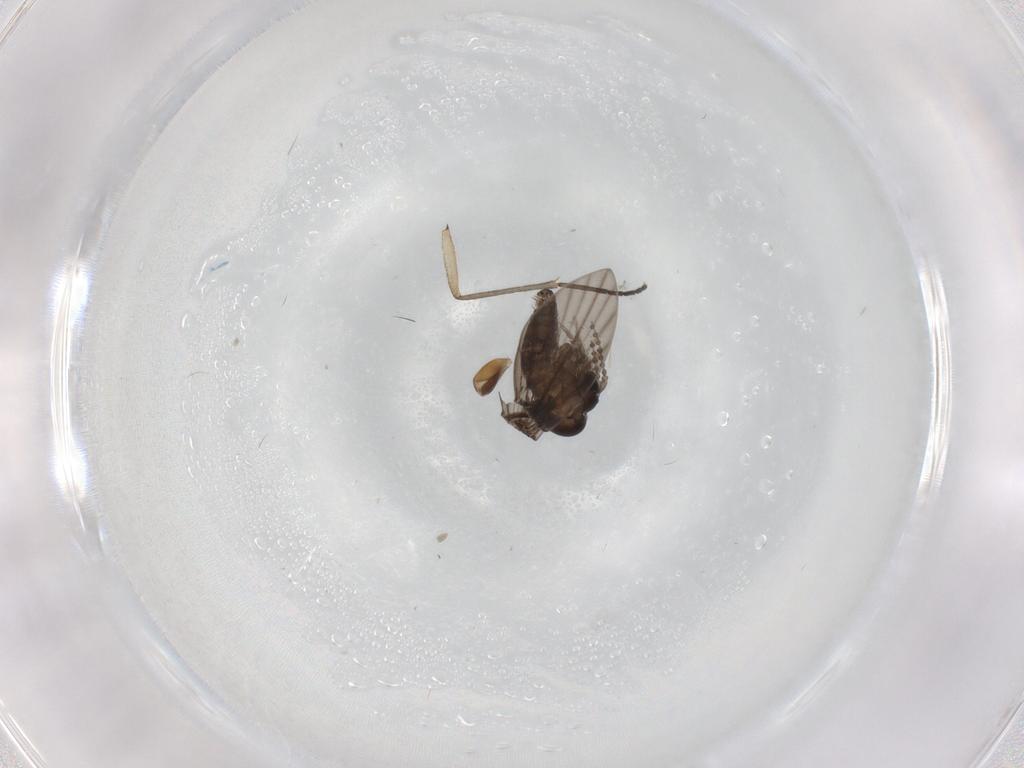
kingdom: Animalia
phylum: Arthropoda
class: Insecta
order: Diptera
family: Psychodidae
